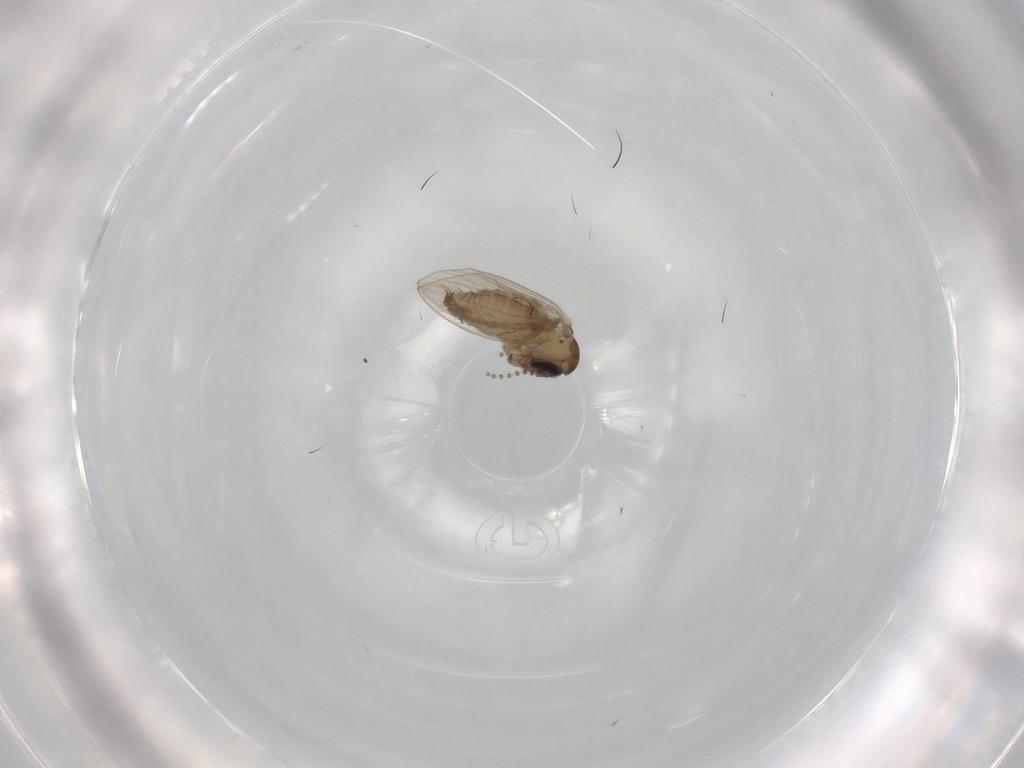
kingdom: Animalia
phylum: Arthropoda
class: Insecta
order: Diptera
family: Psychodidae
